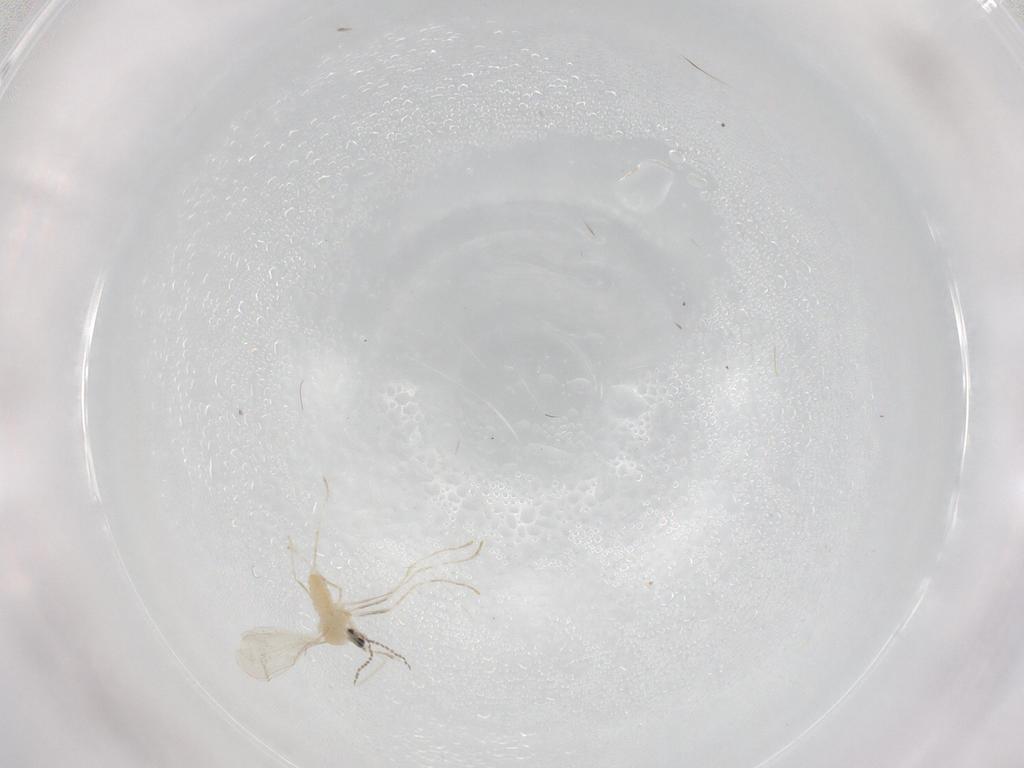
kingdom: Animalia
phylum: Arthropoda
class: Insecta
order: Diptera
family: Cecidomyiidae
